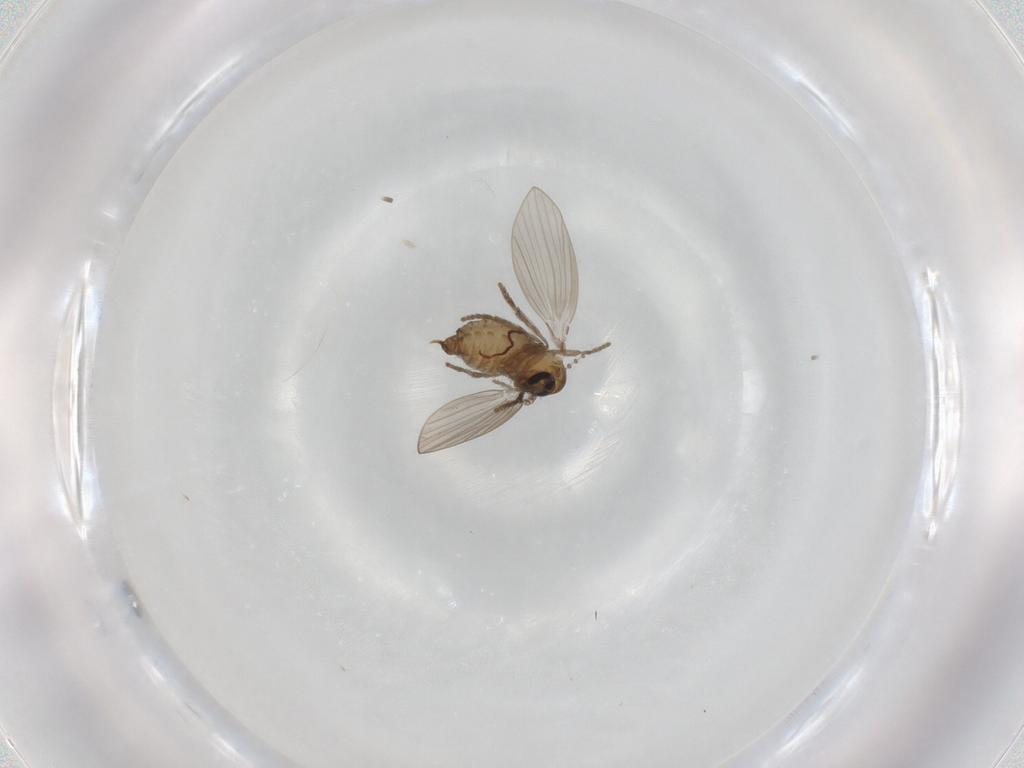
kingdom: Animalia
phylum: Arthropoda
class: Insecta
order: Diptera
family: Psychodidae
